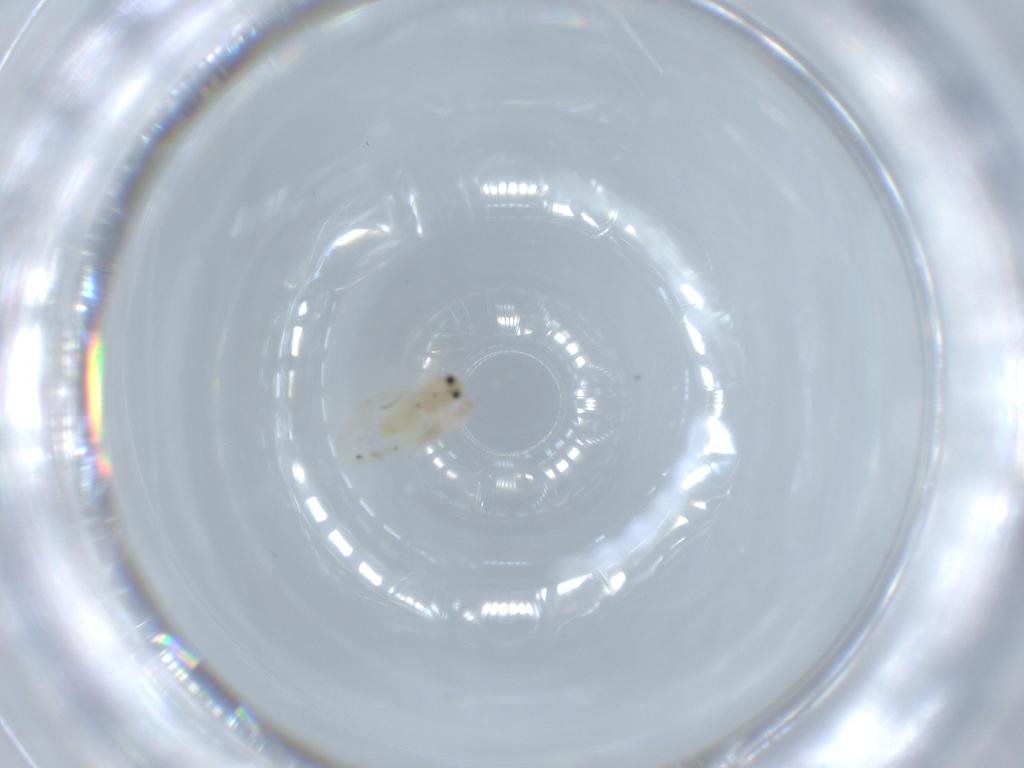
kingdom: Animalia
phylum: Arthropoda
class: Insecta
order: Hemiptera
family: Aleyrodidae
